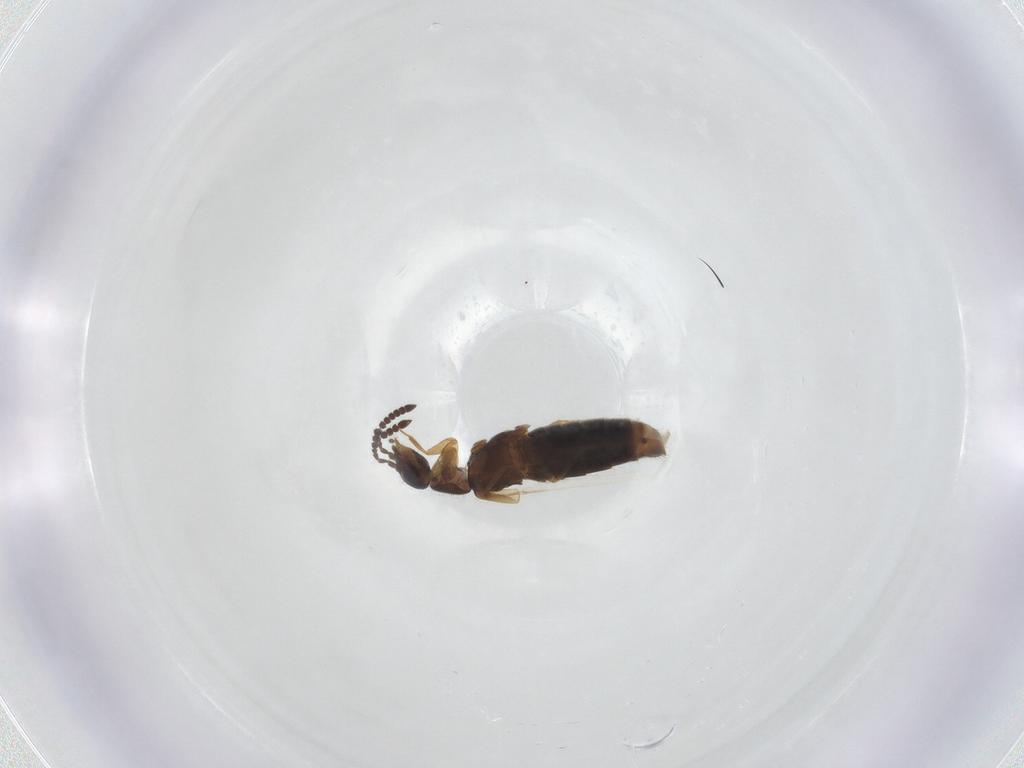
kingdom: Animalia
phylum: Arthropoda
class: Insecta
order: Coleoptera
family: Staphylinidae
